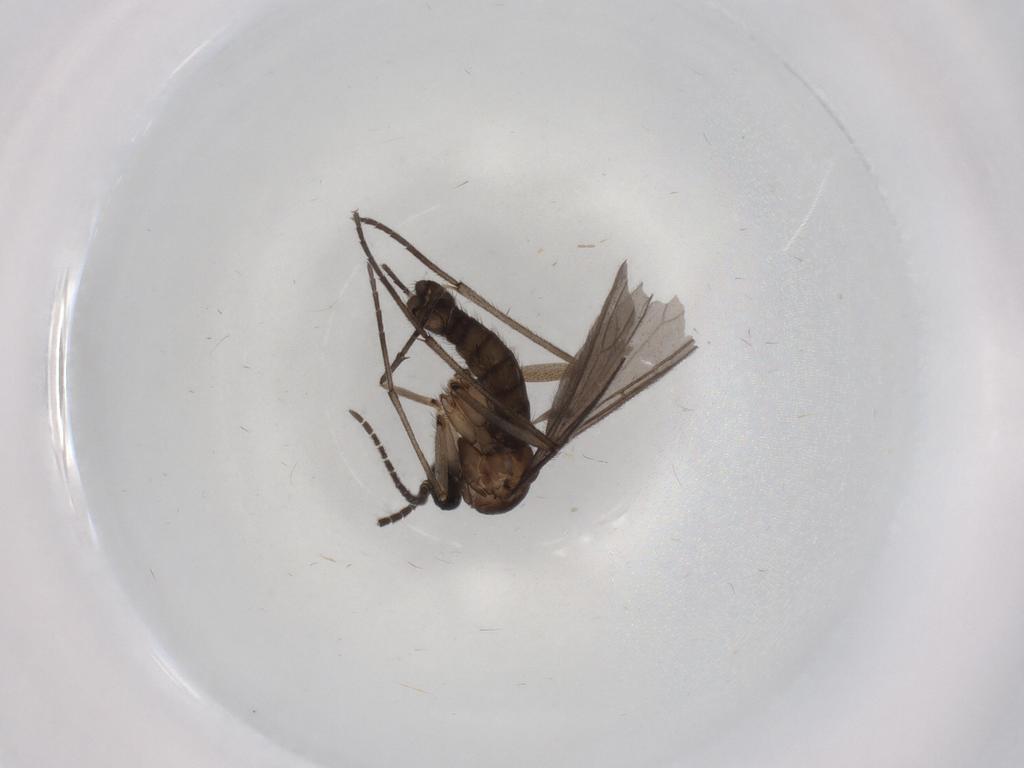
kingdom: Animalia
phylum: Arthropoda
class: Insecta
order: Diptera
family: Sciaridae
